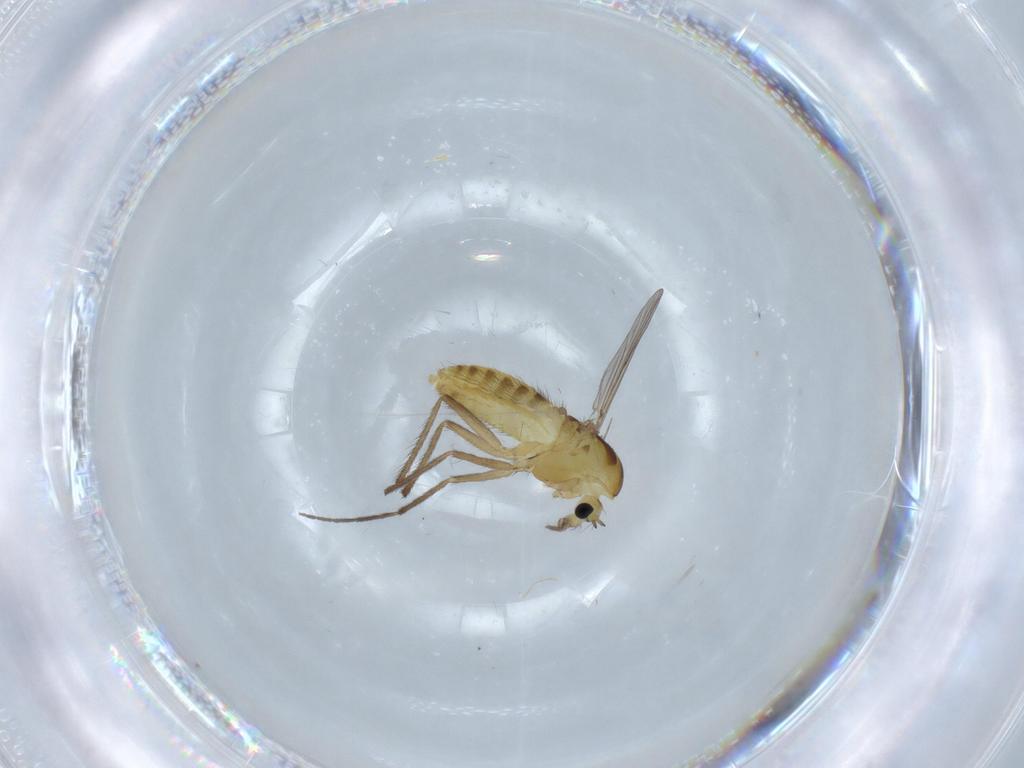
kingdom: Animalia
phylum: Arthropoda
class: Insecta
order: Diptera
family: Chironomidae
